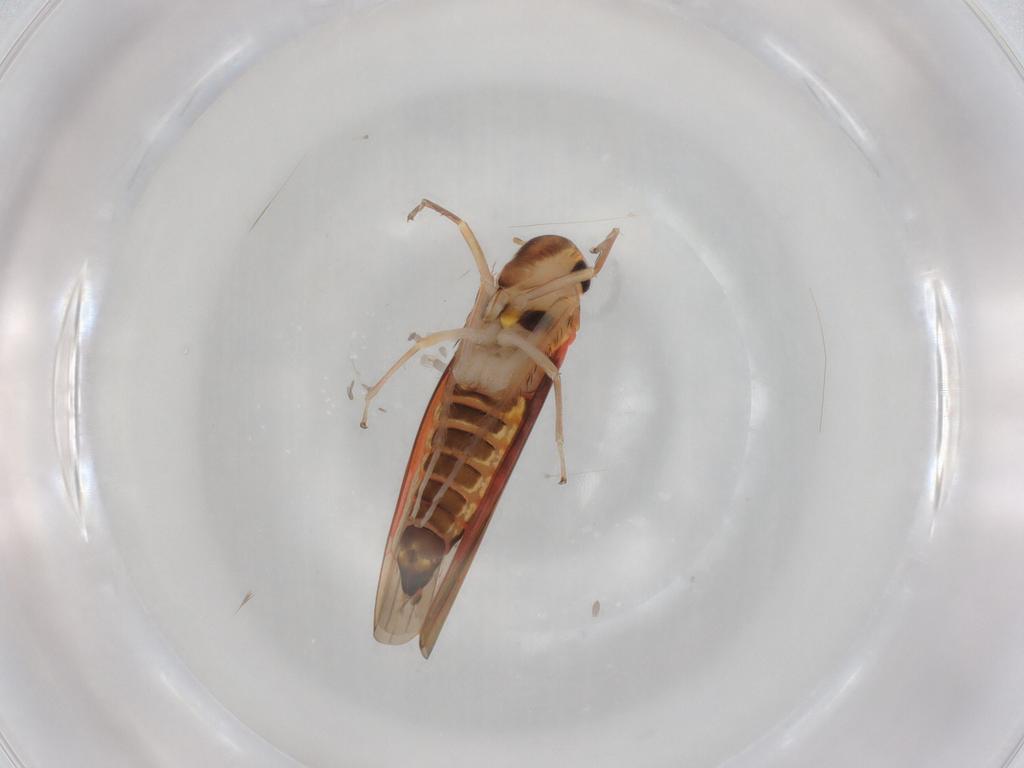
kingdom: Animalia
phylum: Arthropoda
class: Insecta
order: Hemiptera
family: Cicadellidae
